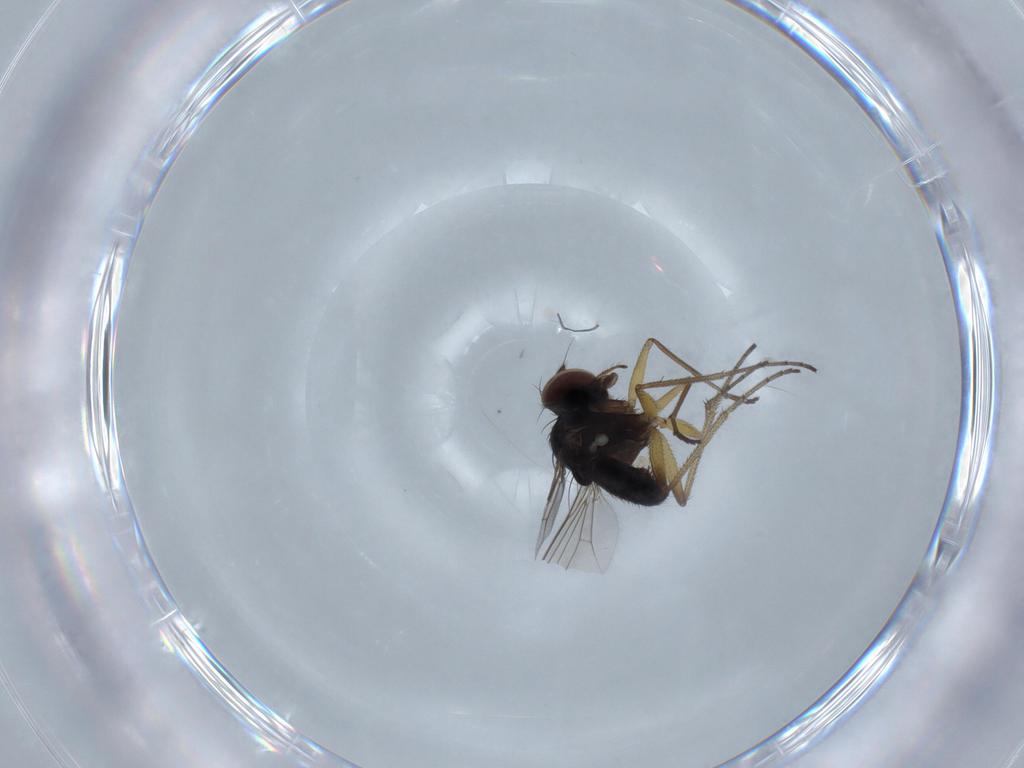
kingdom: Animalia
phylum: Arthropoda
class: Insecta
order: Diptera
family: Dolichopodidae
